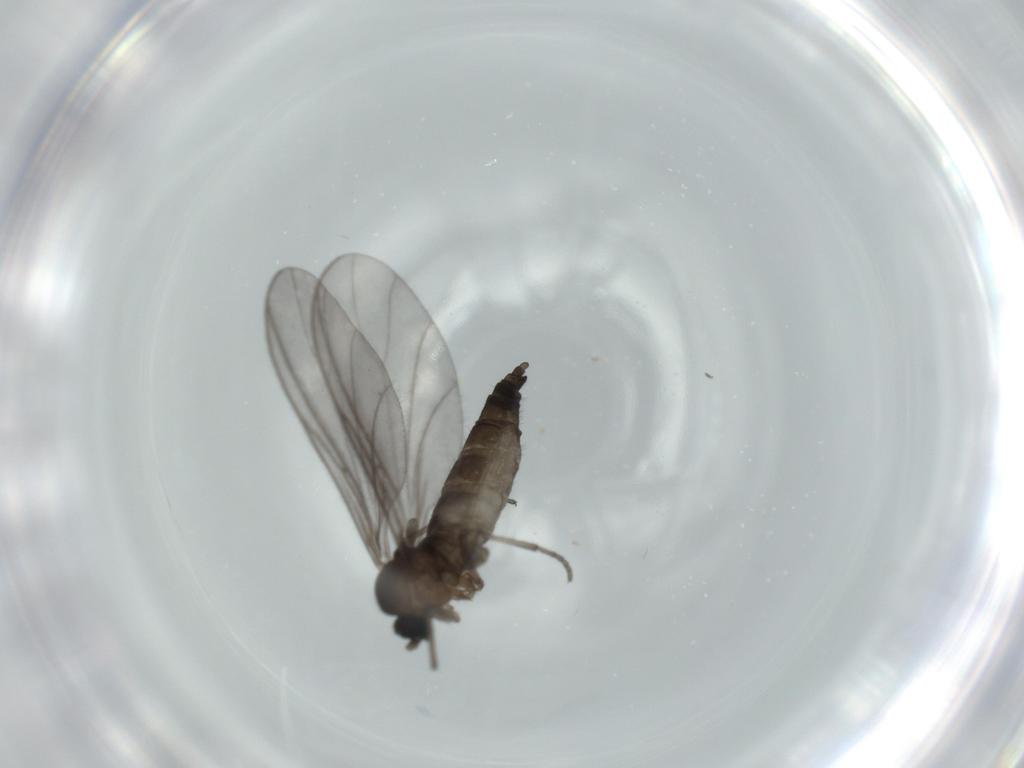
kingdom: Animalia
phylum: Arthropoda
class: Insecta
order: Diptera
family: Sciaridae
